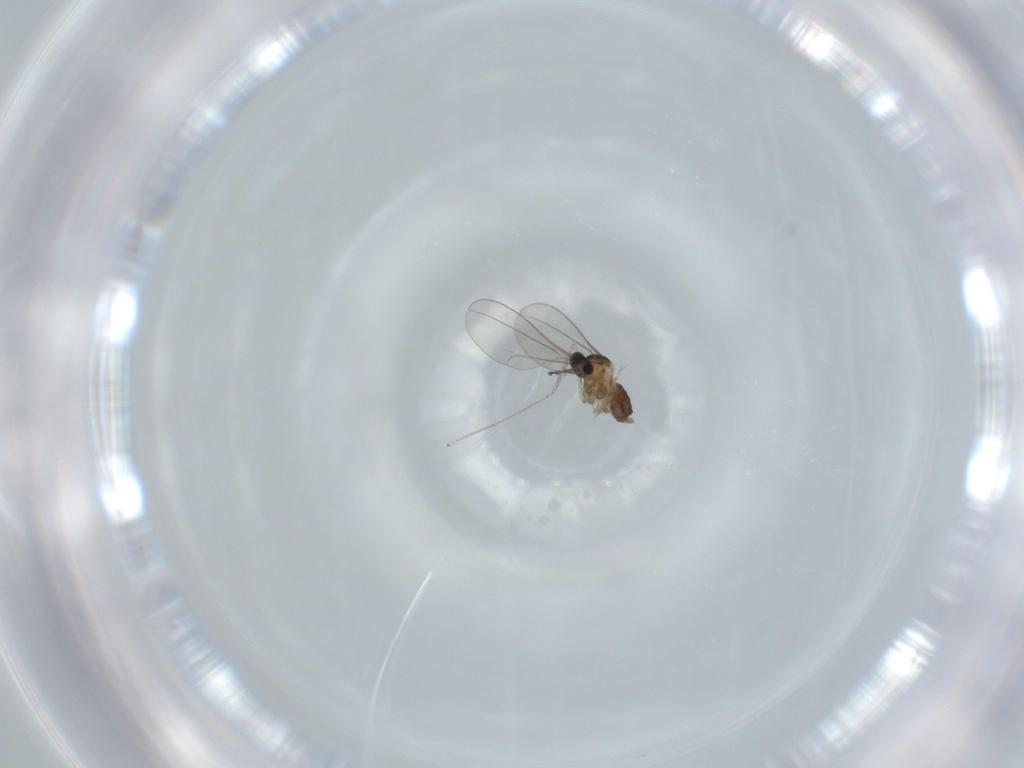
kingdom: Animalia
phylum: Arthropoda
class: Insecta
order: Diptera
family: Cecidomyiidae
